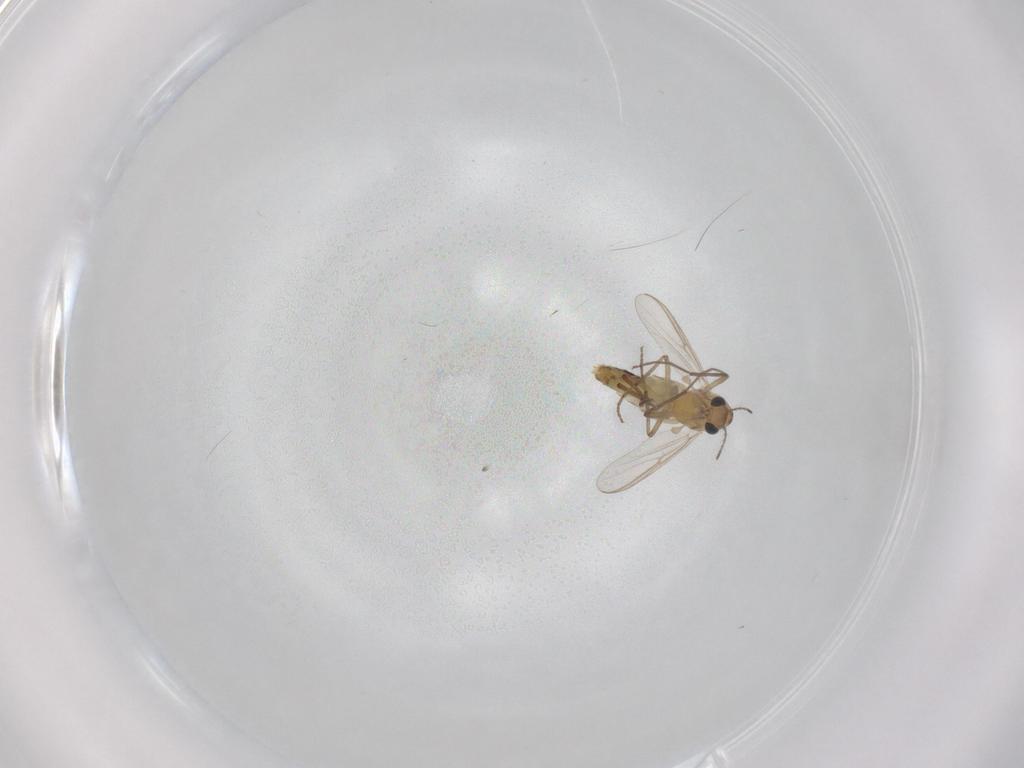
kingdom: Animalia
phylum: Arthropoda
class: Insecta
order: Diptera
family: Chironomidae
